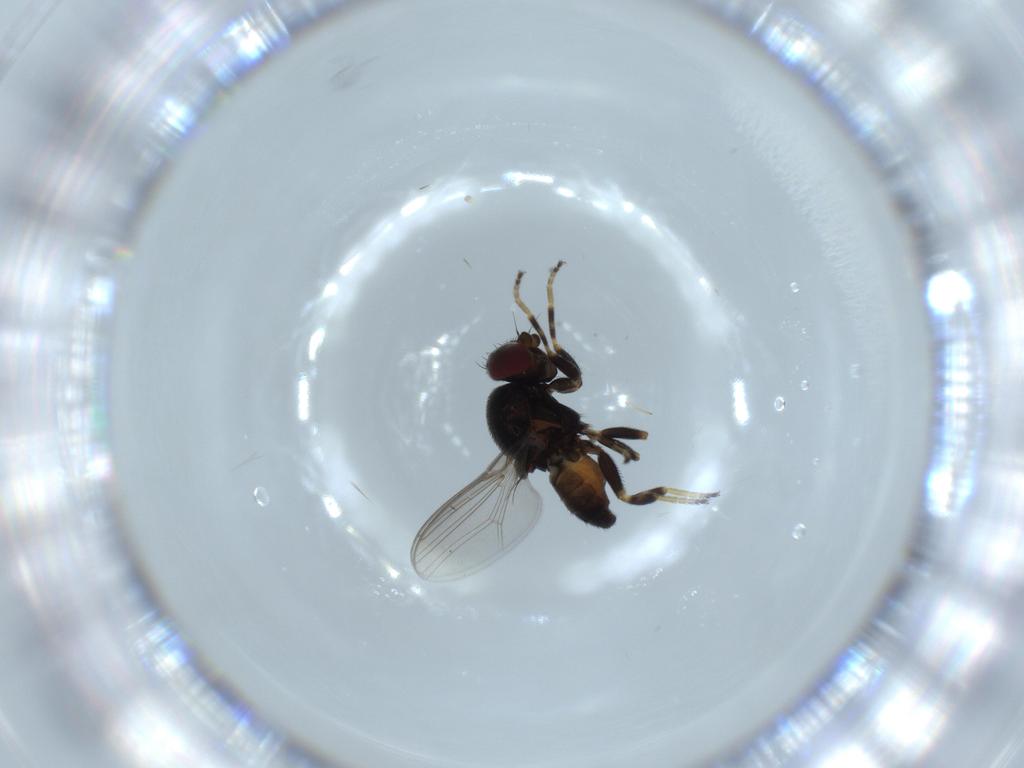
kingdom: Animalia
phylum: Arthropoda
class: Insecta
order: Diptera
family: Chloropidae
